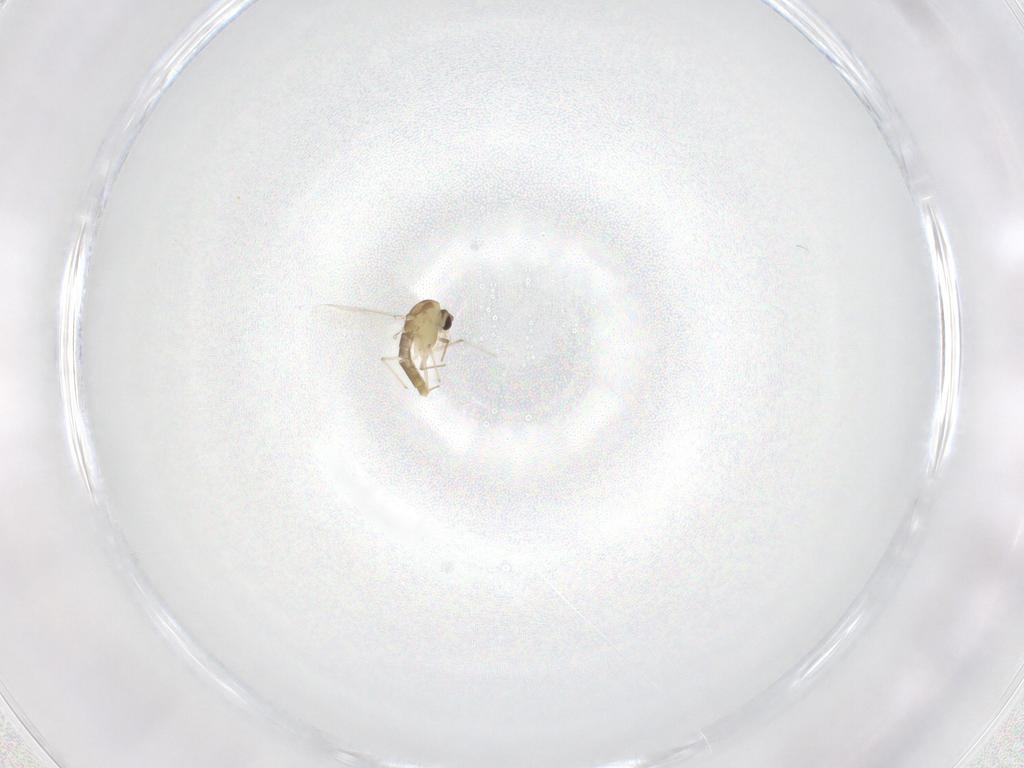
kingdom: Animalia
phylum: Arthropoda
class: Insecta
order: Diptera
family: Chironomidae
